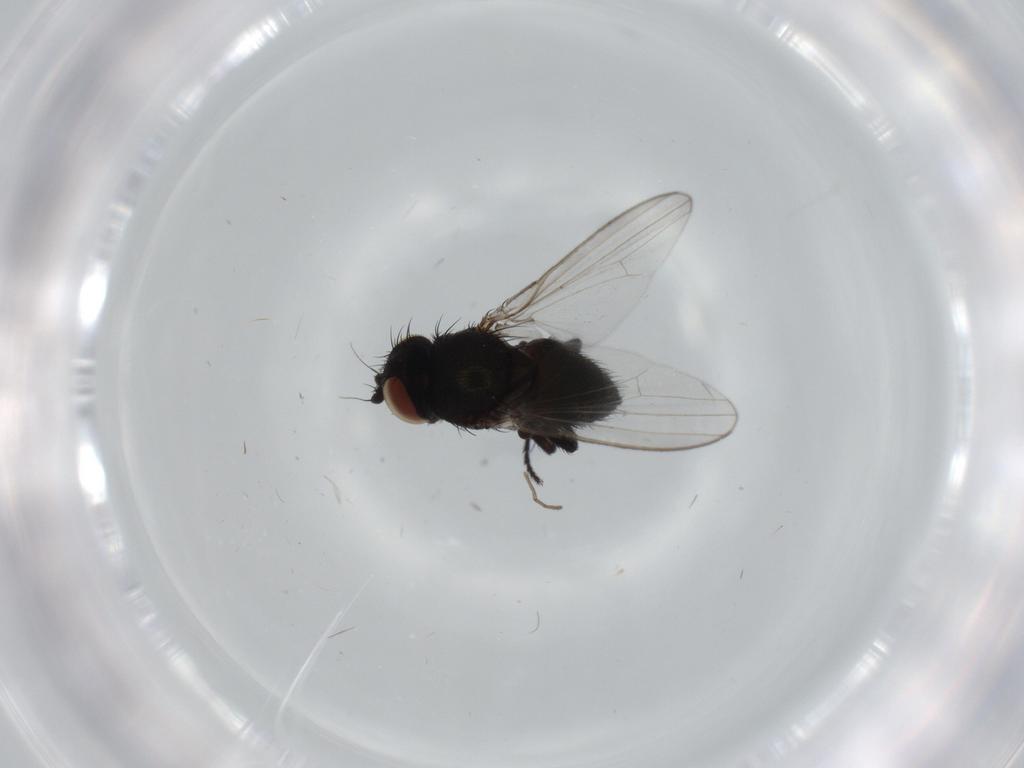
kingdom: Animalia
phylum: Arthropoda
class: Insecta
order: Diptera
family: Milichiidae
